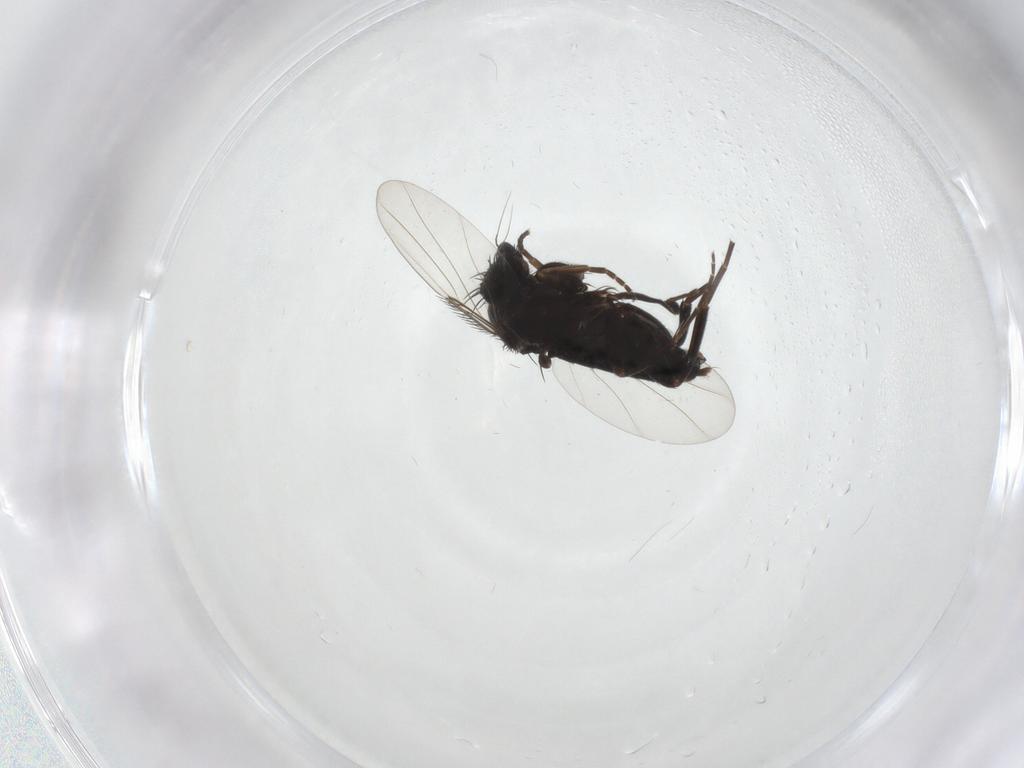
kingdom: Animalia
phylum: Arthropoda
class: Insecta
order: Diptera
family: Phoridae
